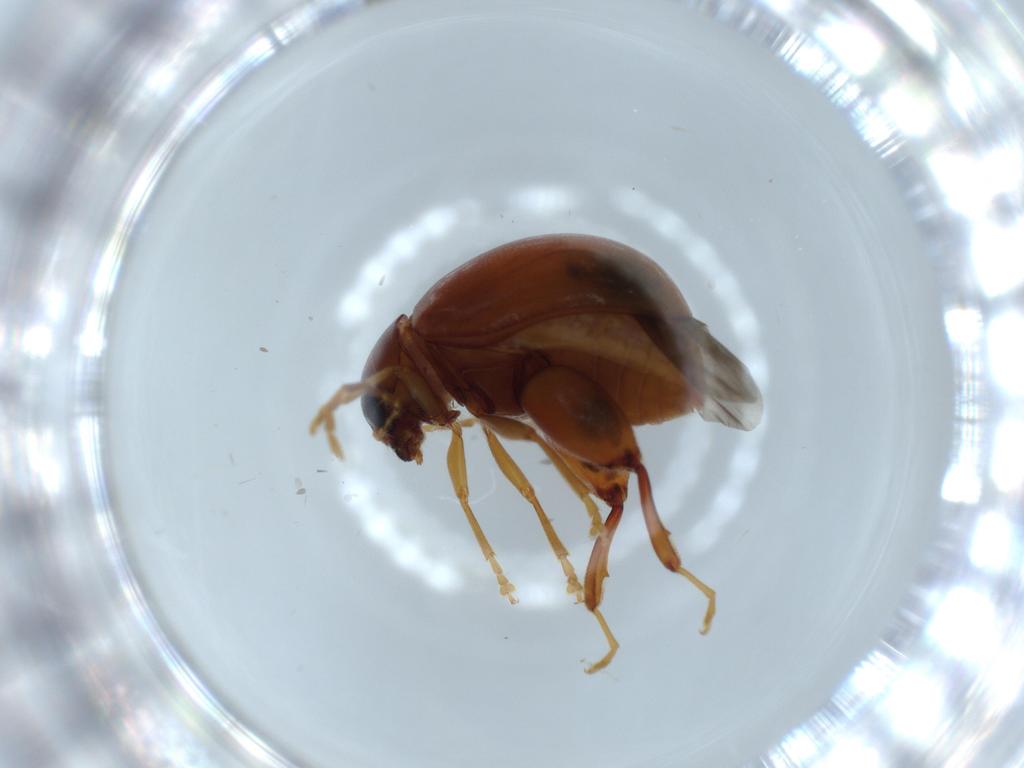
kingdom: Animalia
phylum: Arthropoda
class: Insecta
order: Coleoptera
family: Chrysomelidae
